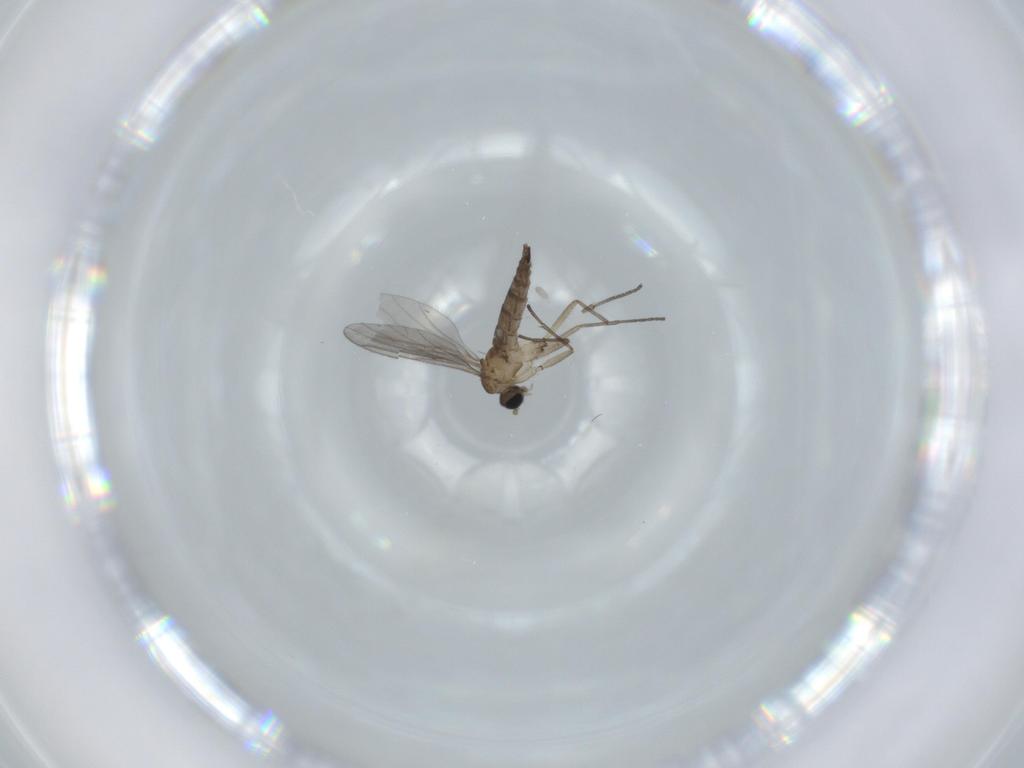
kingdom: Animalia
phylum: Arthropoda
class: Insecta
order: Diptera
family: Sciaridae
